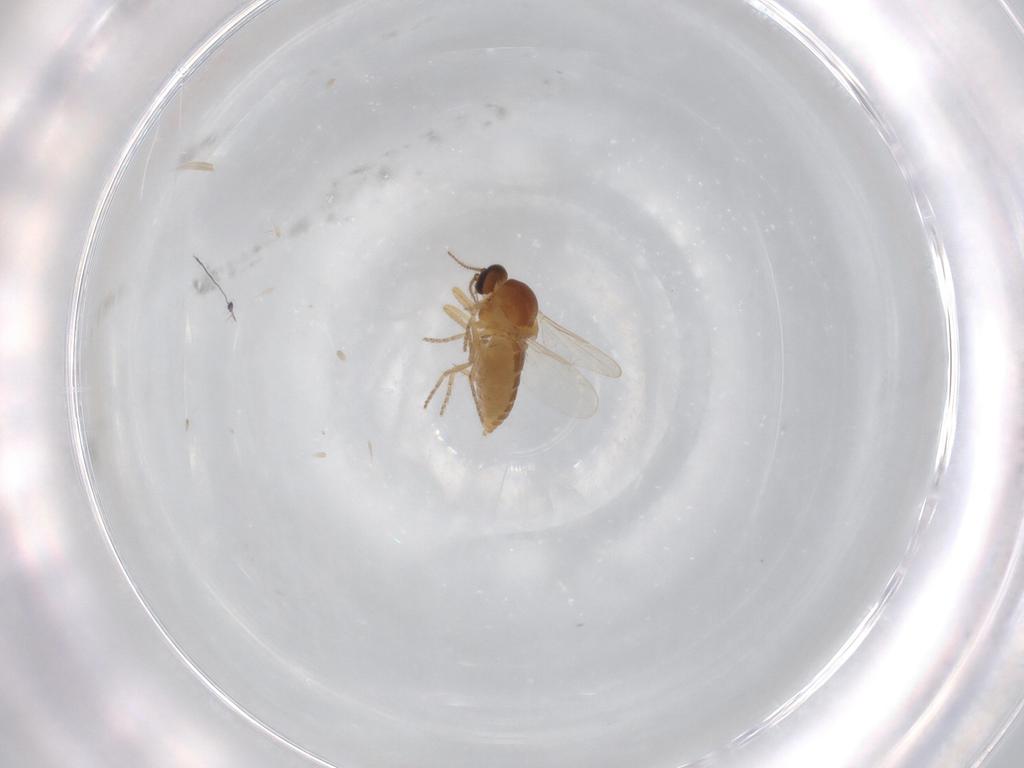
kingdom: Animalia
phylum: Arthropoda
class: Insecta
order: Diptera
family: Ceratopogonidae
